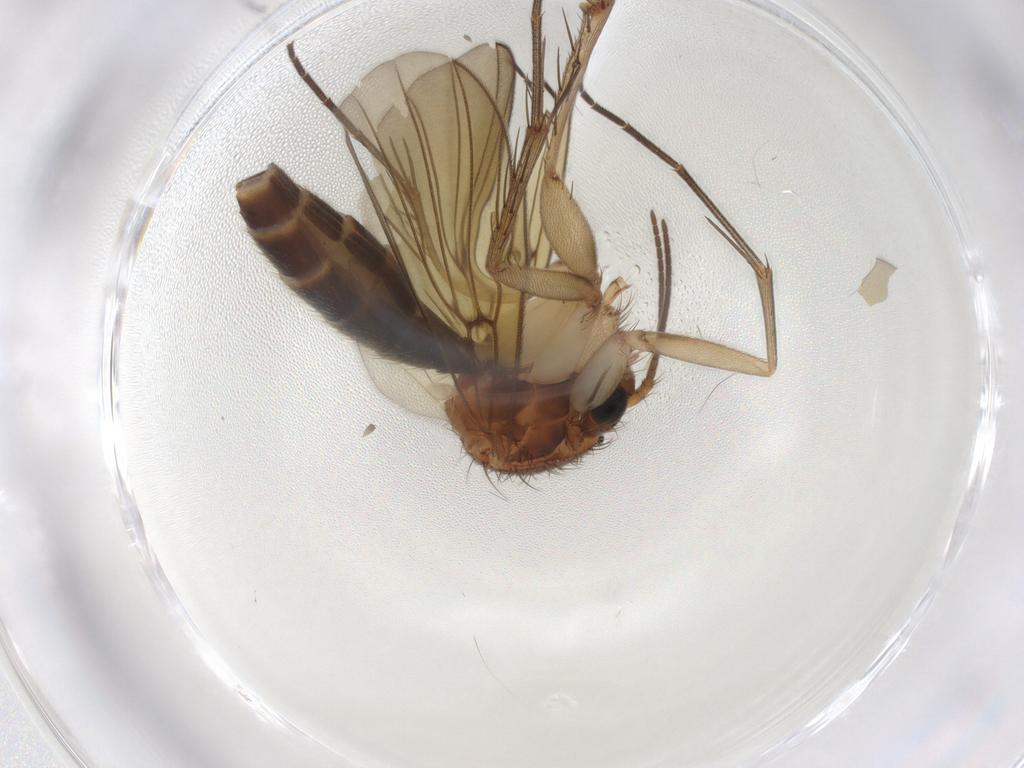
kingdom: Animalia
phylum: Arthropoda
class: Insecta
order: Diptera
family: Mycetophilidae
